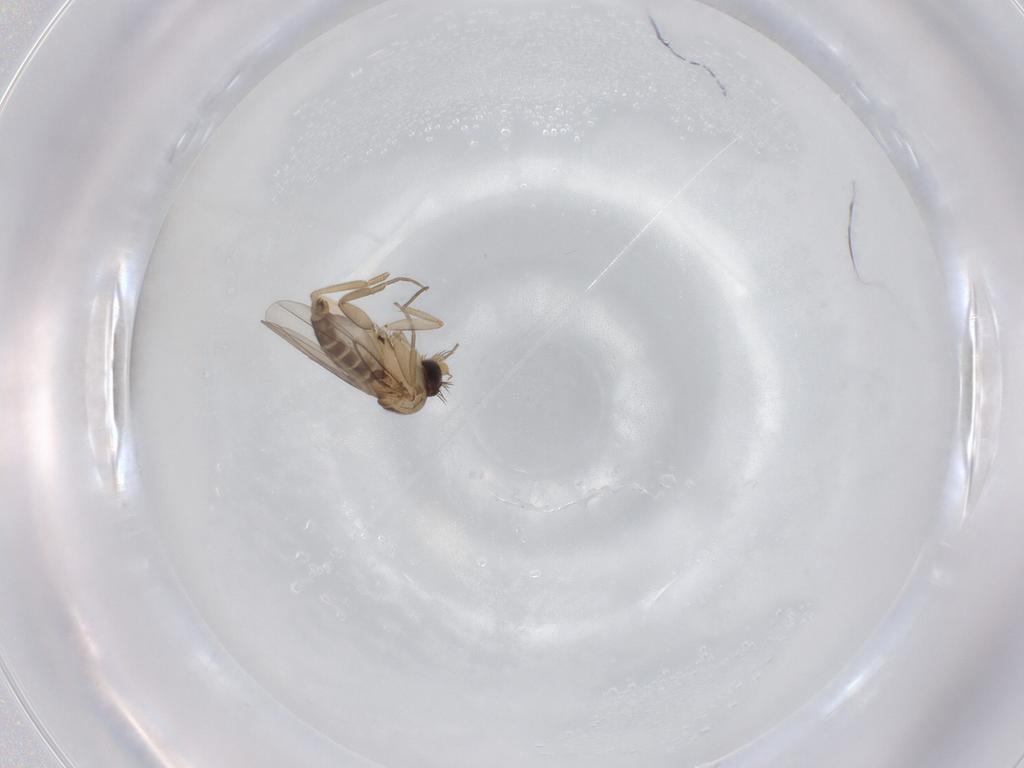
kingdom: Animalia
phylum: Arthropoda
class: Insecta
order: Diptera
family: Phoridae
